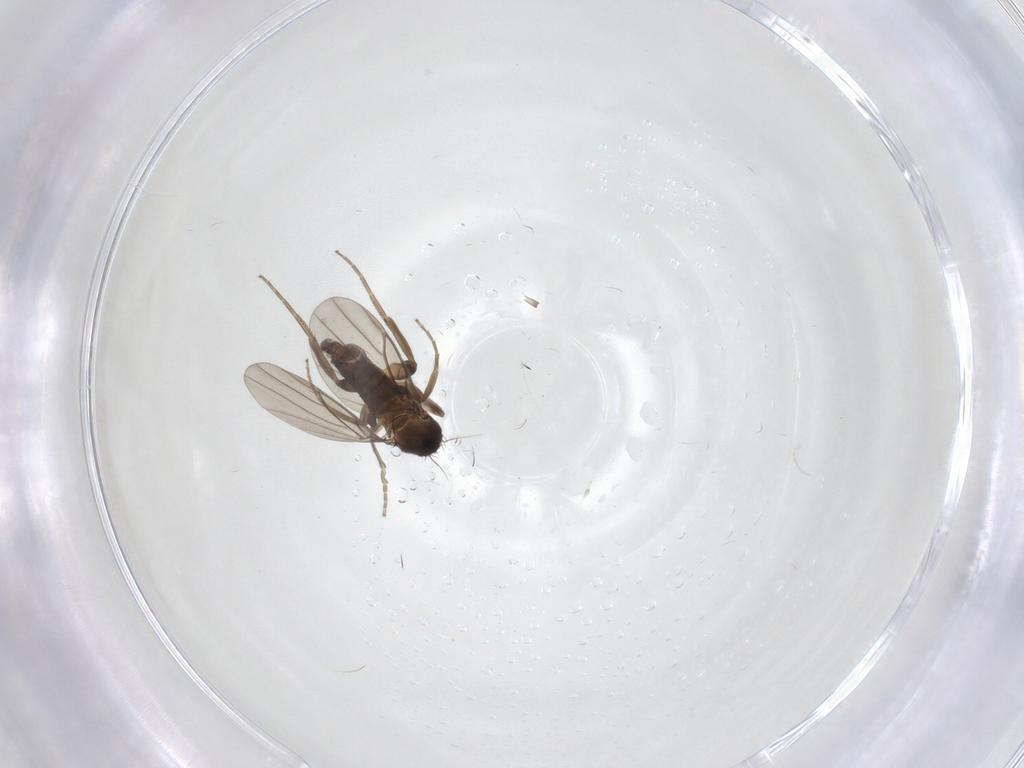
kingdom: Animalia
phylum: Arthropoda
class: Insecta
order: Diptera
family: Phoridae
